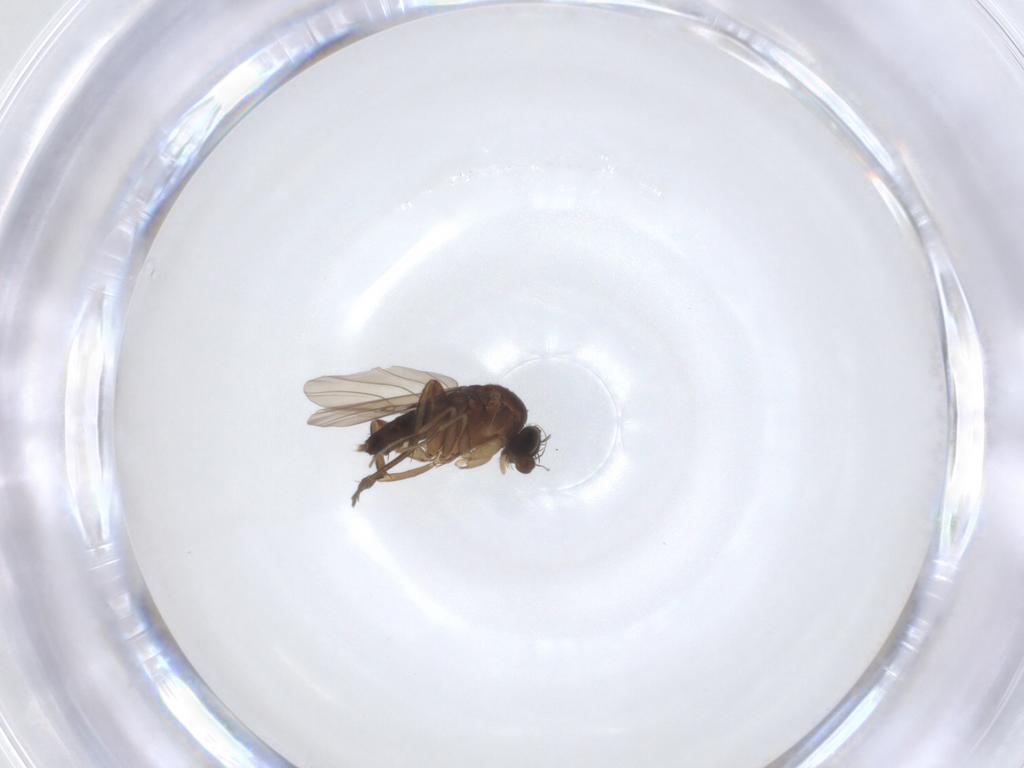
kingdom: Animalia
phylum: Arthropoda
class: Insecta
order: Diptera
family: Phoridae
